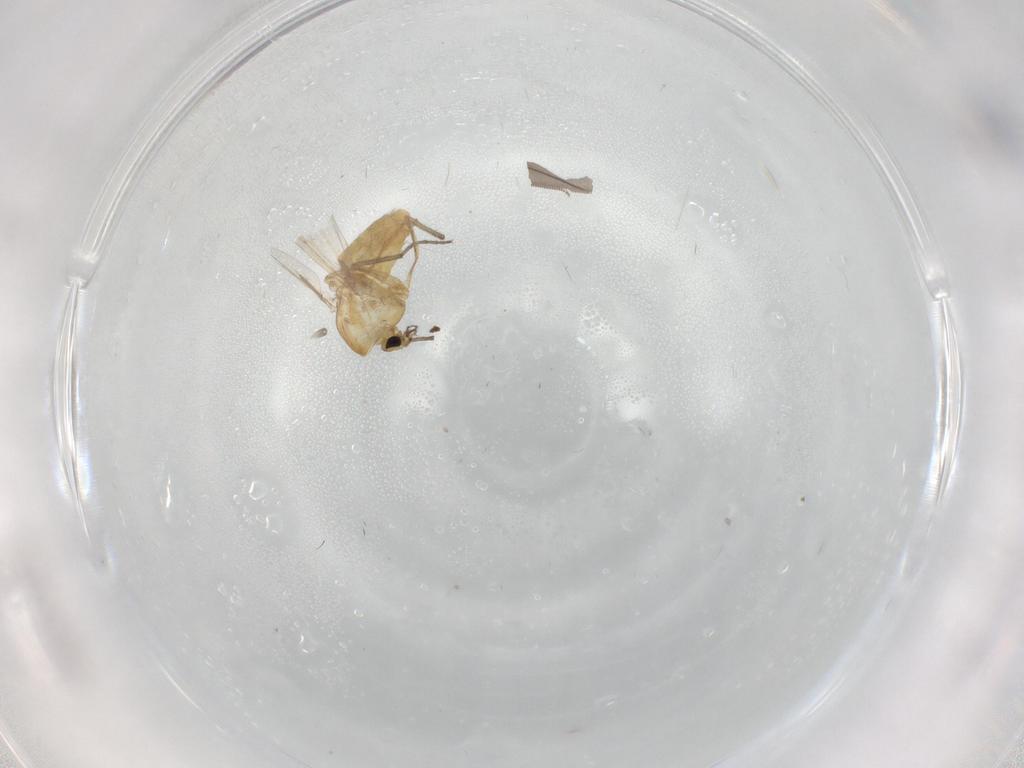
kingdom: Animalia
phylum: Arthropoda
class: Insecta
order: Diptera
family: Chironomidae
